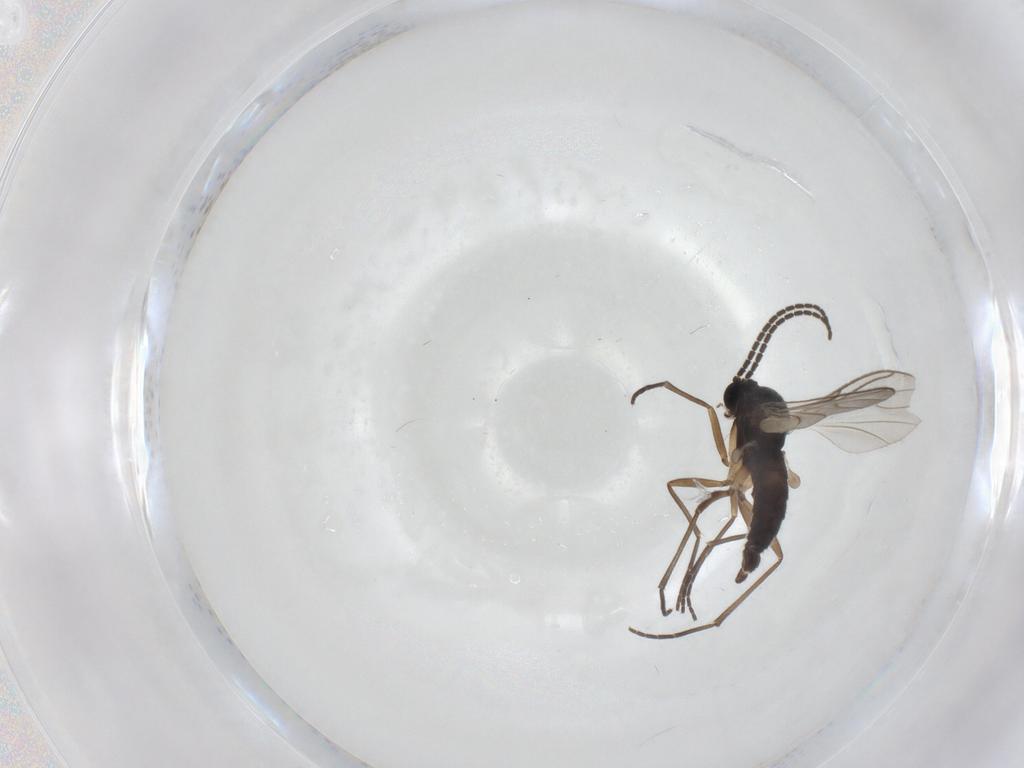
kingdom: Animalia
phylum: Arthropoda
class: Insecta
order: Diptera
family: Sciaridae
